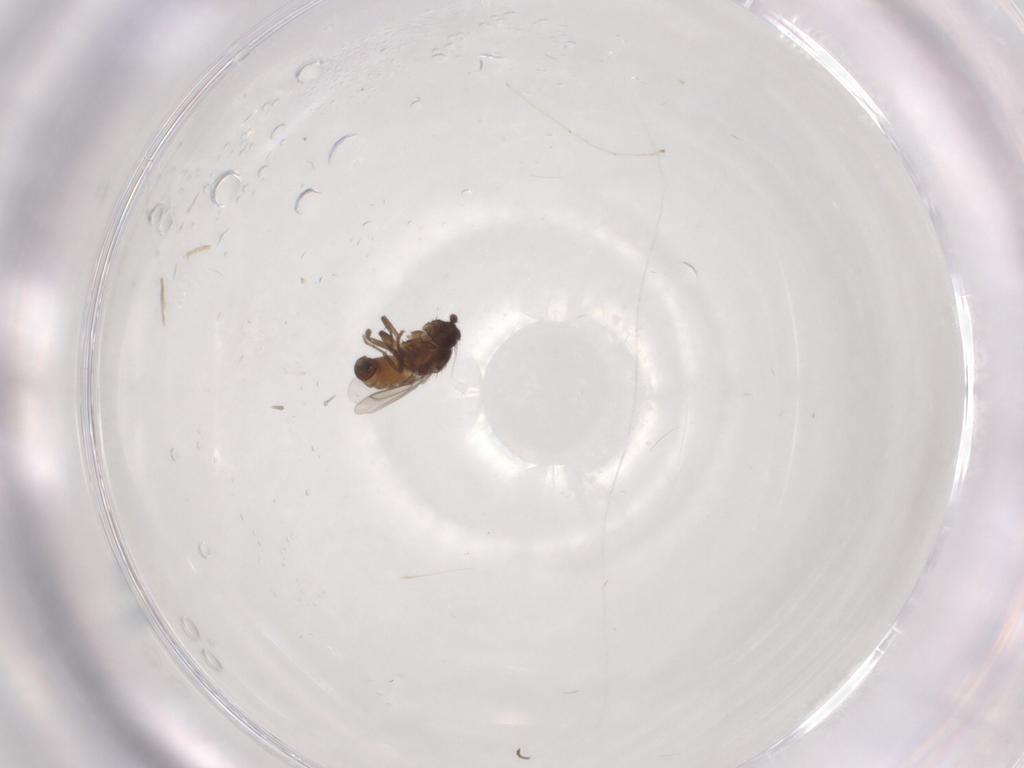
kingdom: Animalia
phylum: Arthropoda
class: Insecta
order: Diptera
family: Cecidomyiidae
